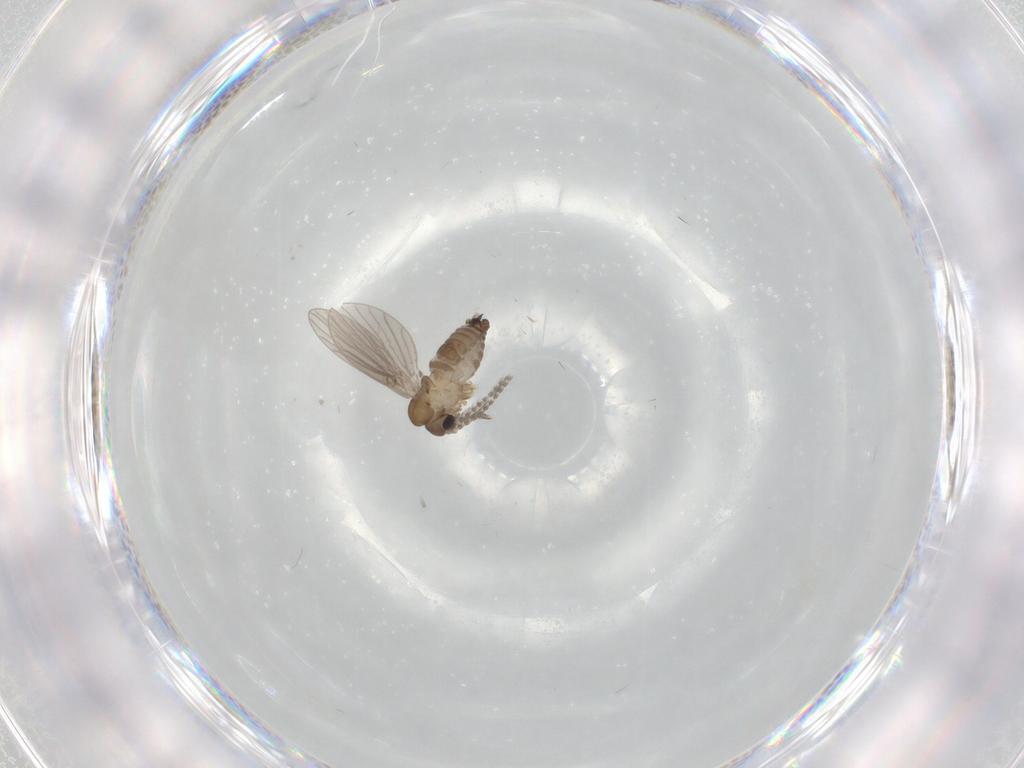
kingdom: Animalia
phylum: Arthropoda
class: Insecta
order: Diptera
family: Psychodidae
